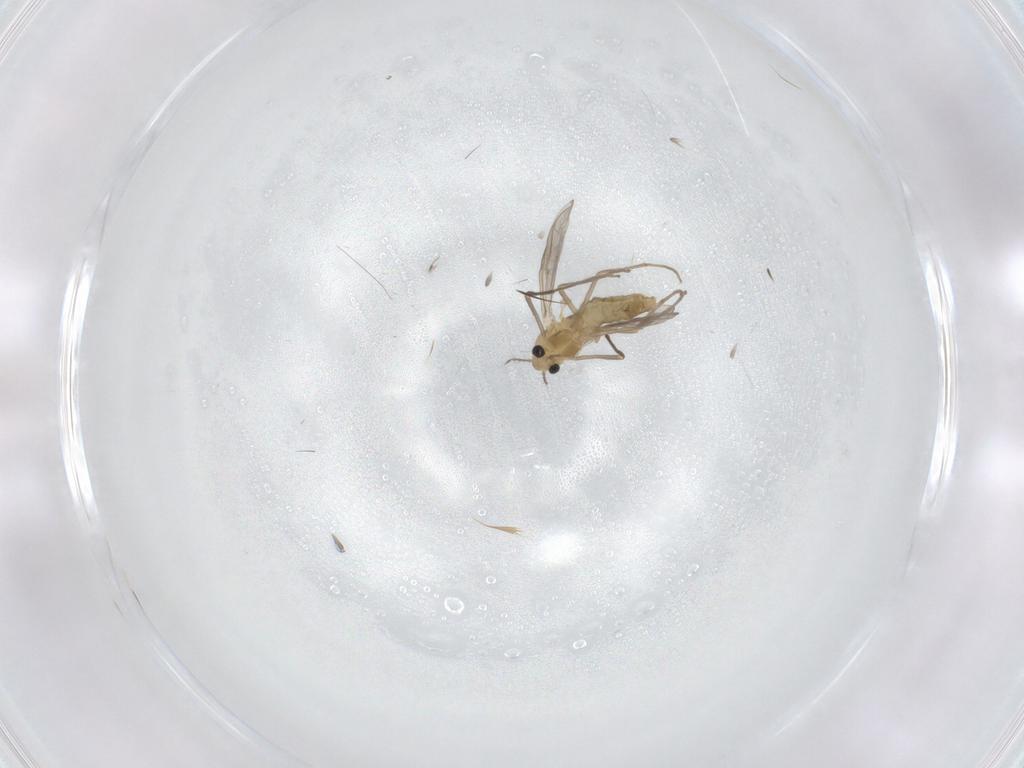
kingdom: Animalia
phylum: Arthropoda
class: Insecta
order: Diptera
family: Chironomidae
